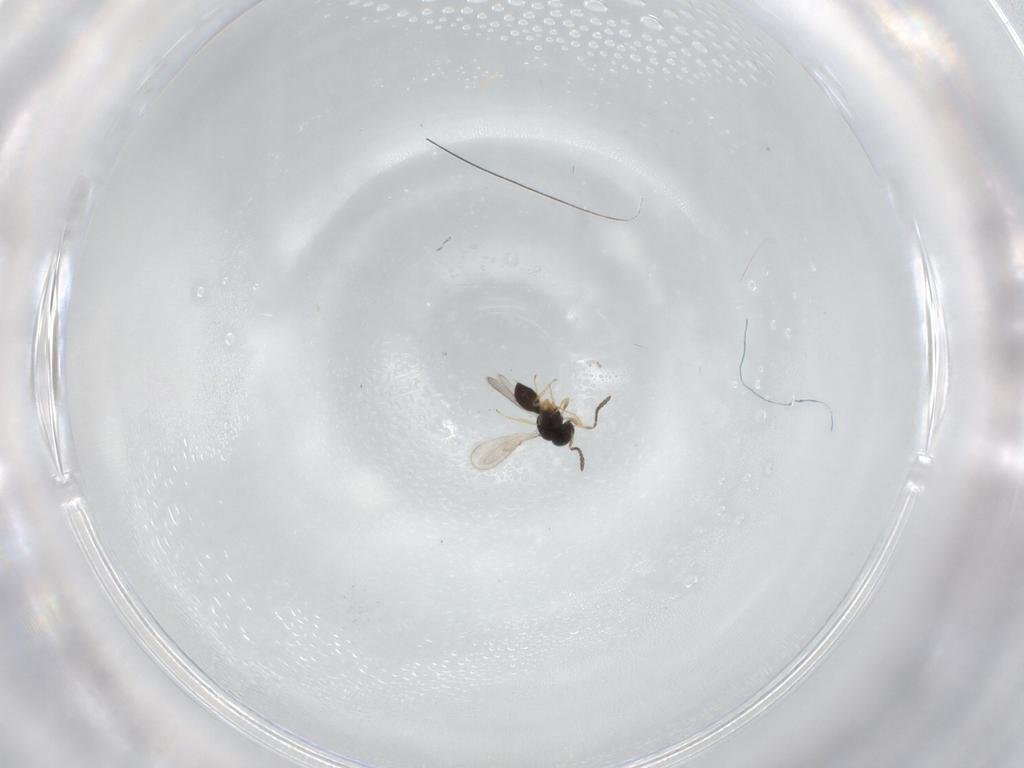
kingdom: Animalia
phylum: Arthropoda
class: Insecta
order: Hymenoptera
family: Scelionidae
